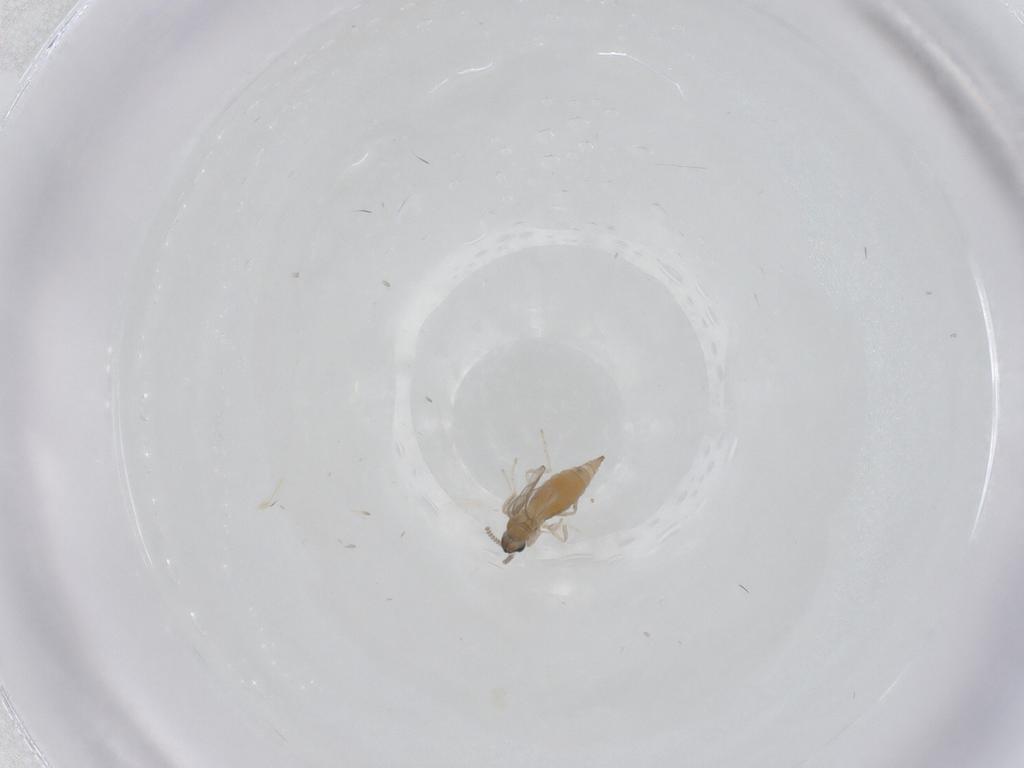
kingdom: Animalia
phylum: Arthropoda
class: Insecta
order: Diptera
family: Cecidomyiidae
